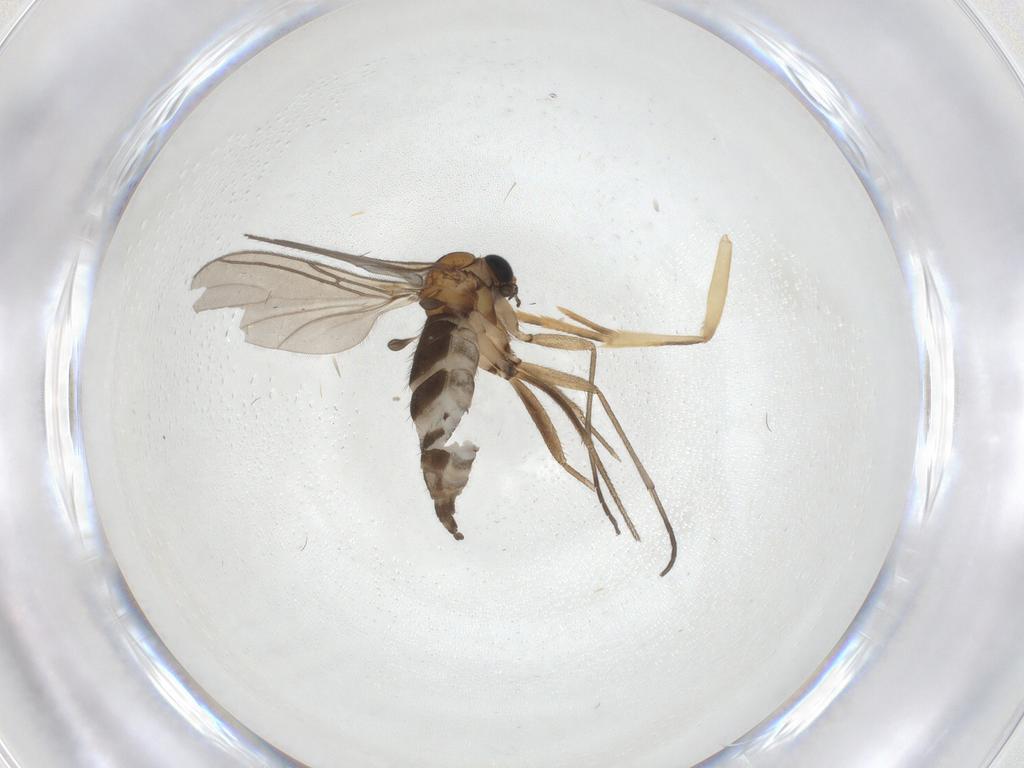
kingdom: Animalia
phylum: Arthropoda
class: Insecta
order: Diptera
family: Sciaridae
